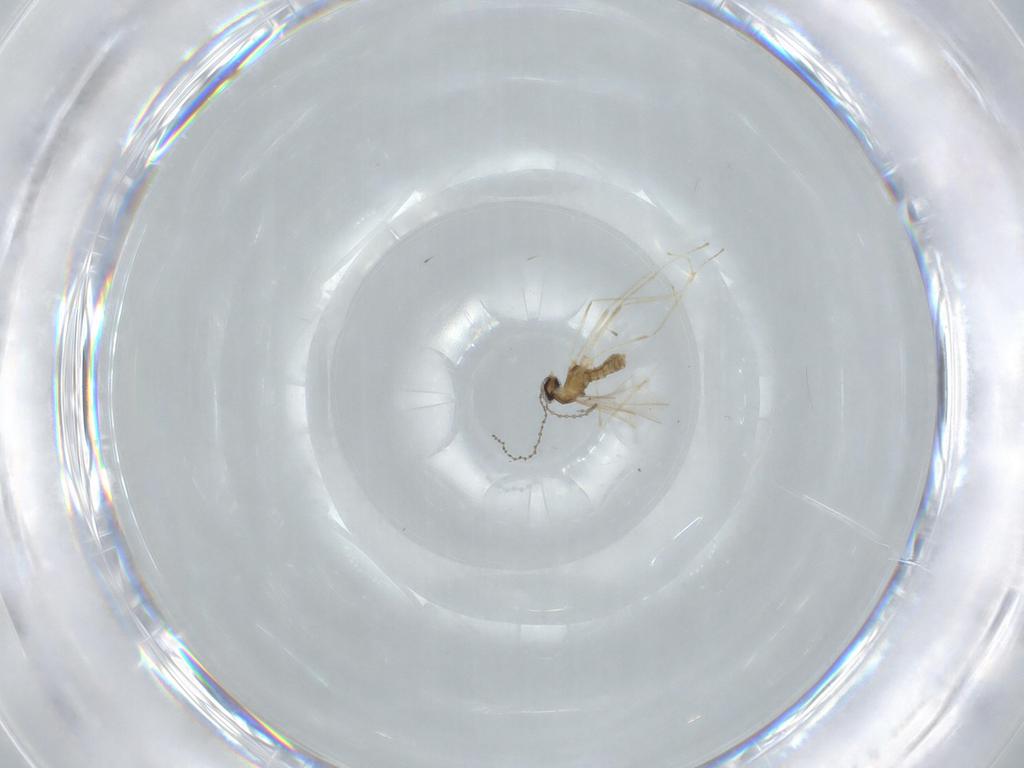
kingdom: Animalia
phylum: Arthropoda
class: Insecta
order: Diptera
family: Cecidomyiidae
